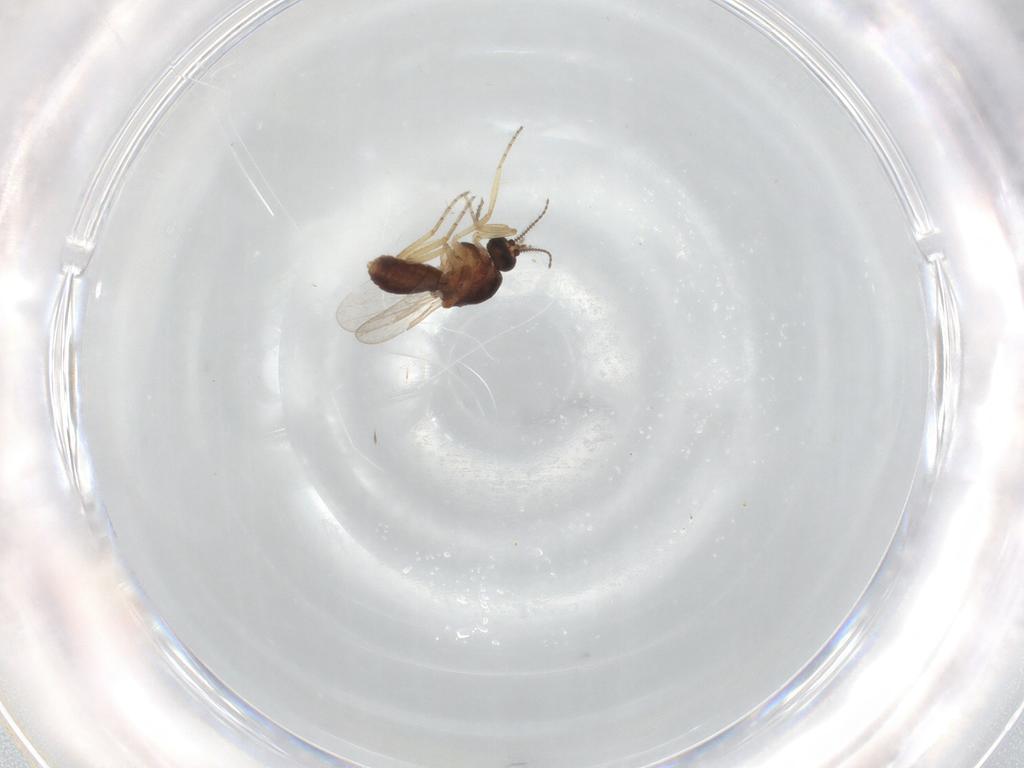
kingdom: Animalia
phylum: Arthropoda
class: Insecta
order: Diptera
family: Ceratopogonidae
